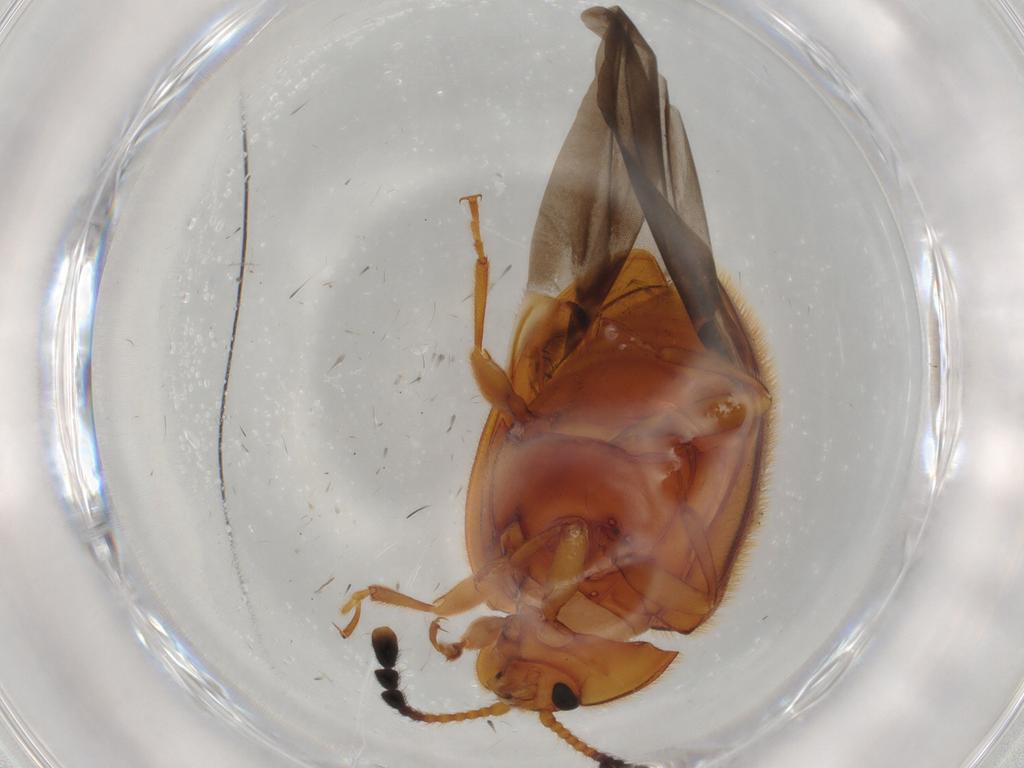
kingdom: Animalia
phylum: Arthropoda
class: Insecta
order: Coleoptera
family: Endomychidae
